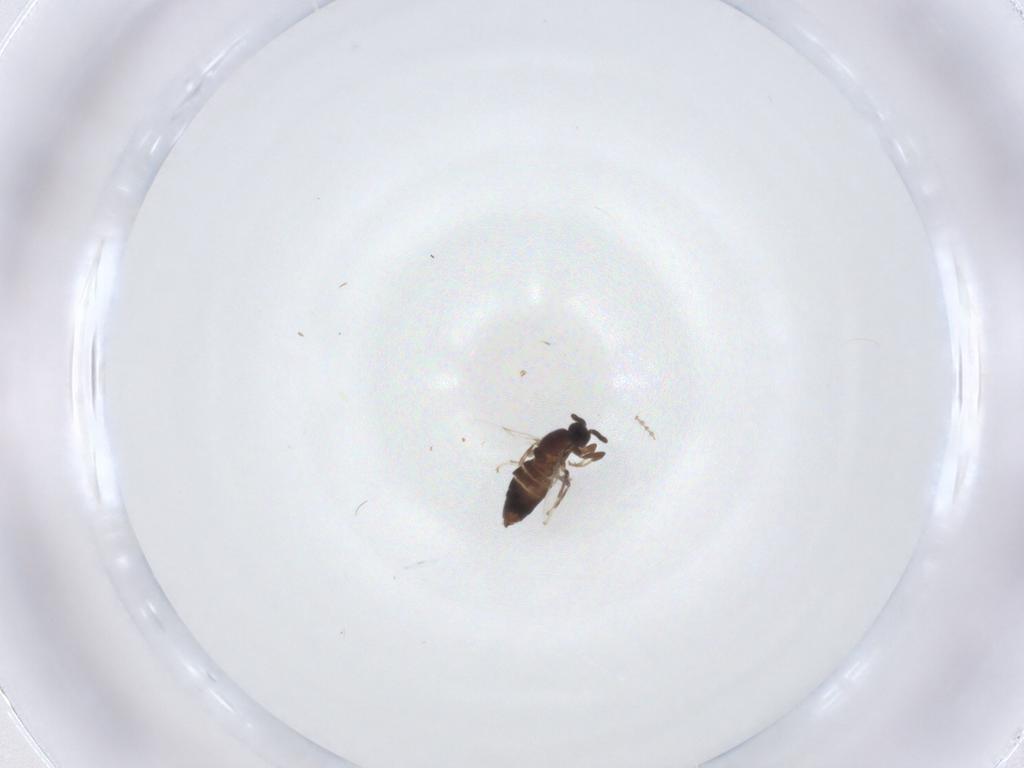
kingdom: Animalia
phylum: Arthropoda
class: Insecta
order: Diptera
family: Scatopsidae
